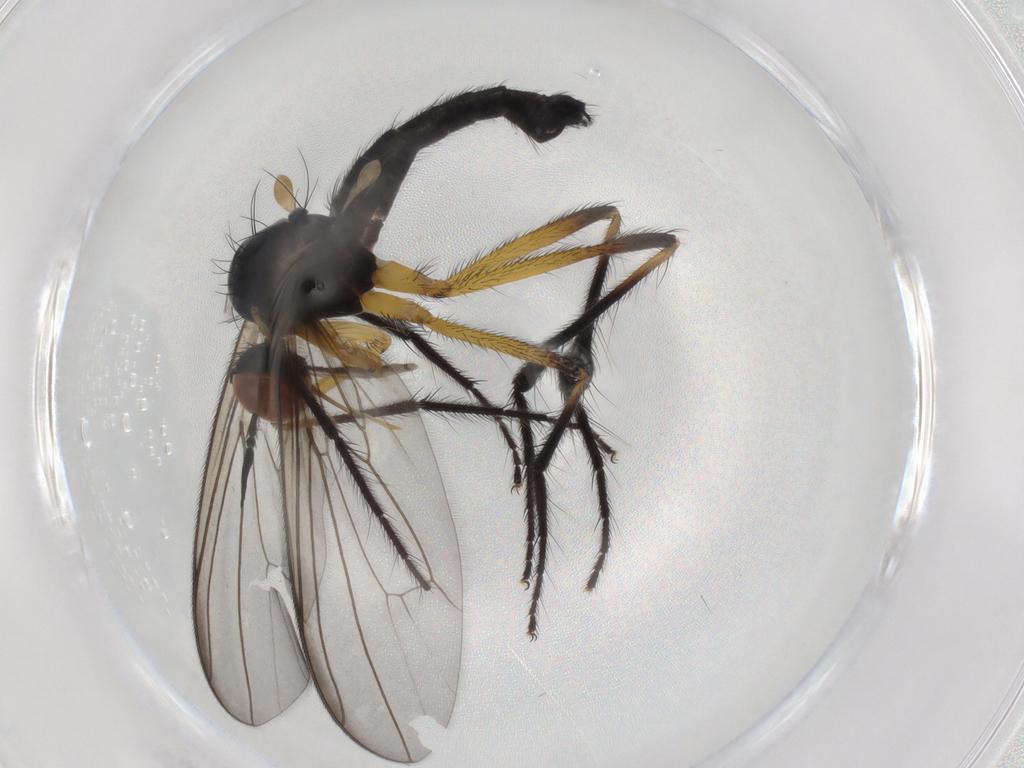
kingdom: Animalia
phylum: Arthropoda
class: Insecta
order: Diptera
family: Empididae
